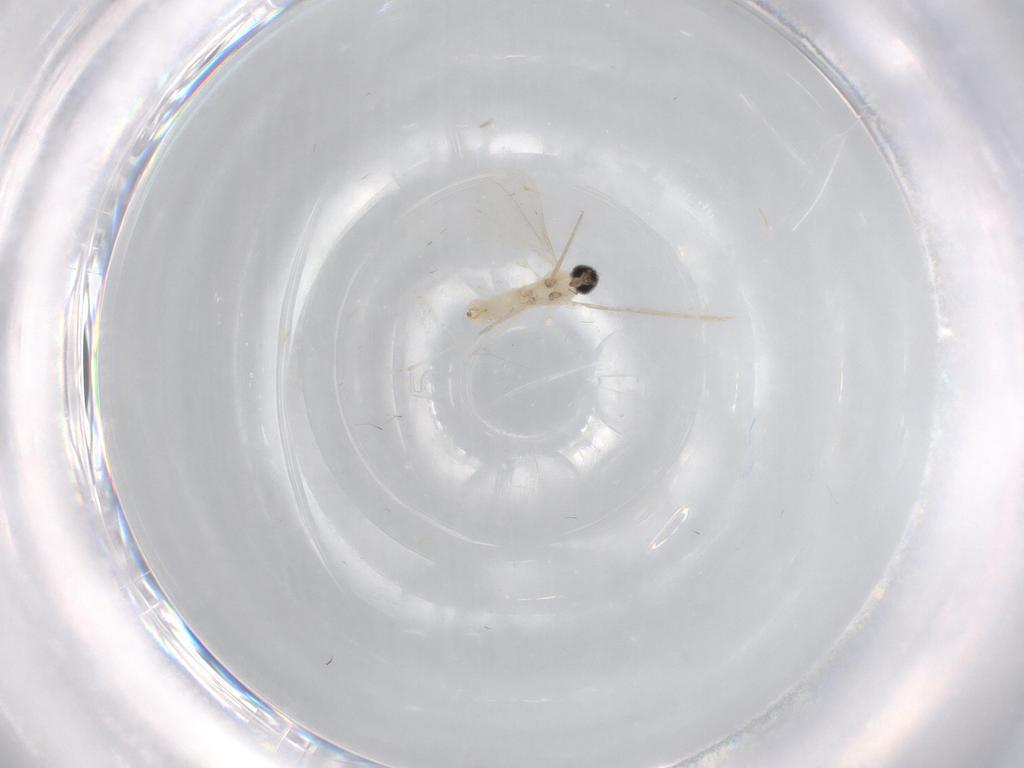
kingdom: Animalia
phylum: Arthropoda
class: Insecta
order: Diptera
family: Cecidomyiidae
